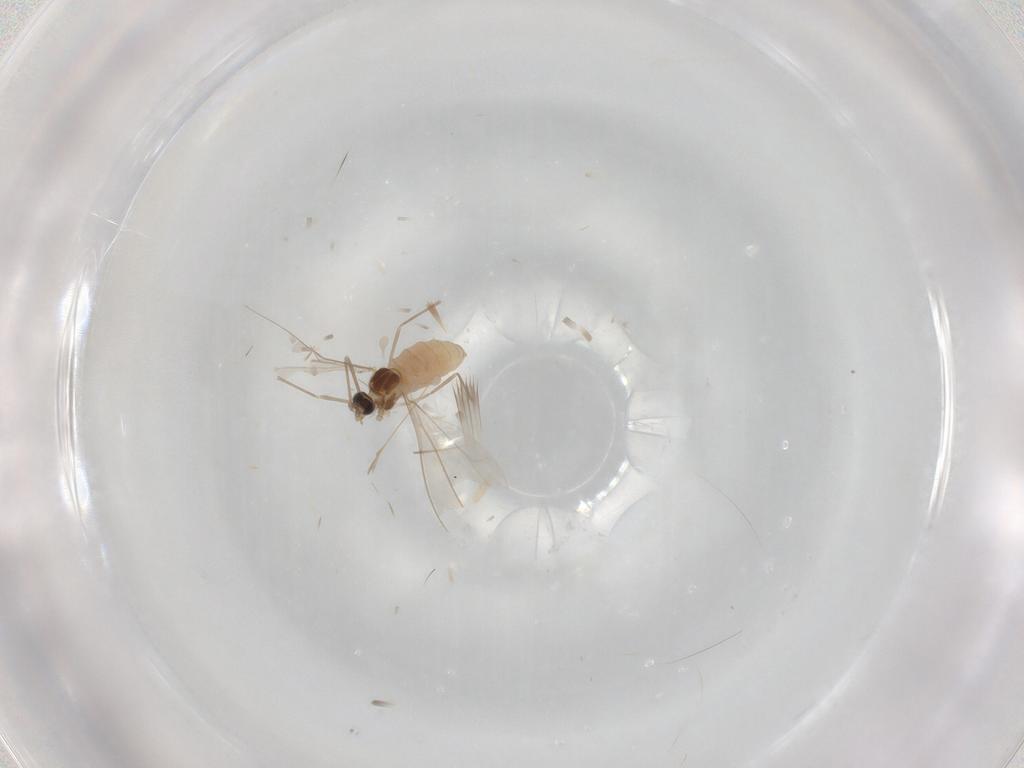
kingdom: Animalia
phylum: Arthropoda
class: Insecta
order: Diptera
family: Cecidomyiidae
